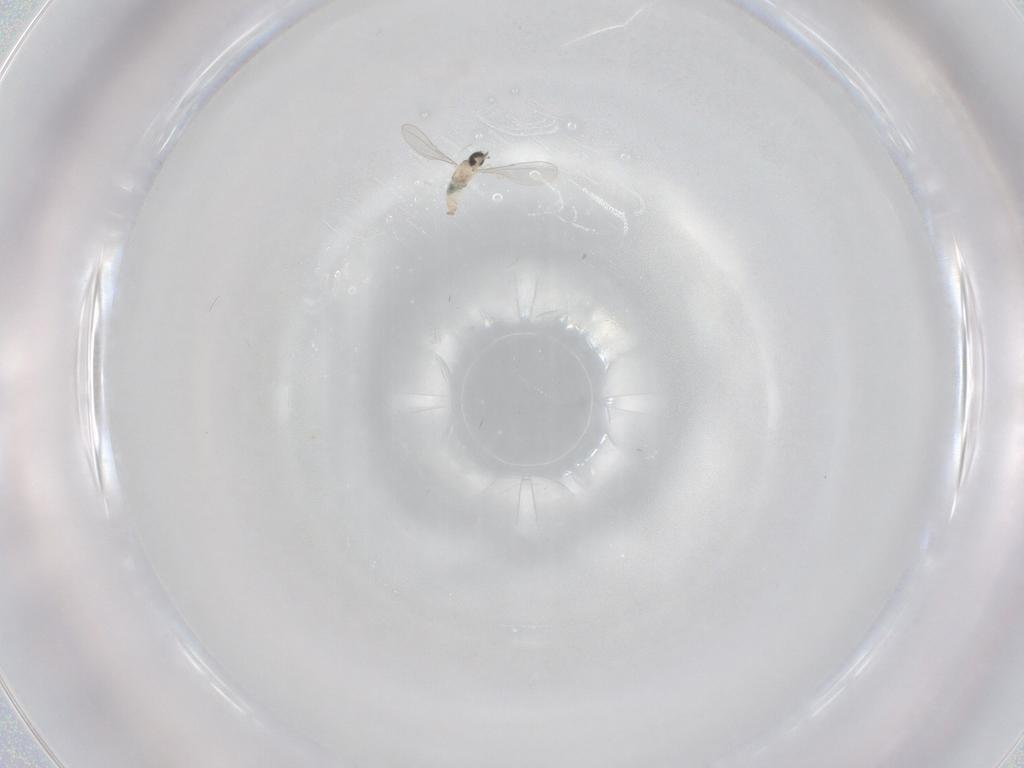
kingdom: Animalia
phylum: Arthropoda
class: Insecta
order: Diptera
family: Cecidomyiidae
